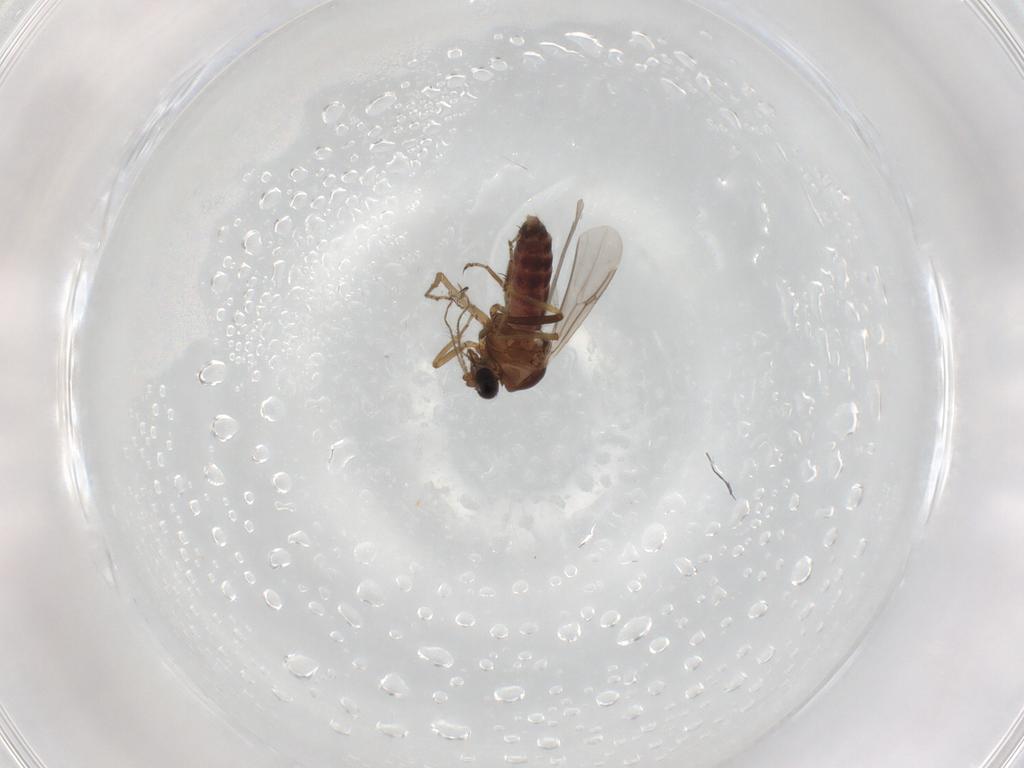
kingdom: Animalia
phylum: Arthropoda
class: Insecta
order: Diptera
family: Ceratopogonidae
